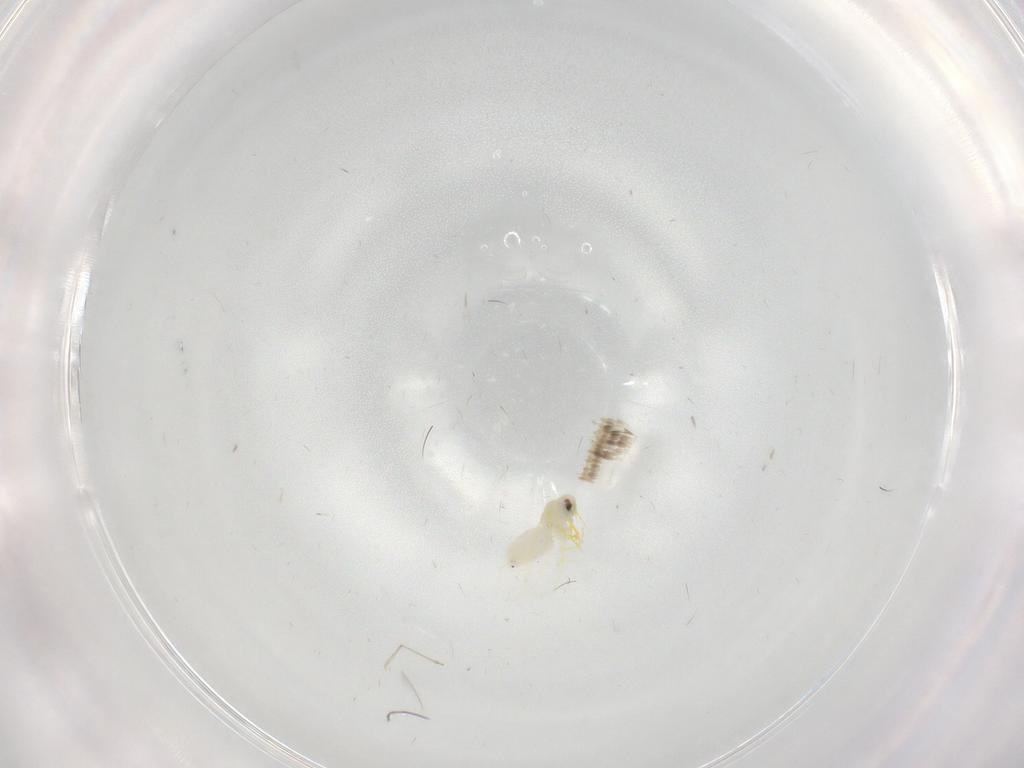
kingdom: Animalia
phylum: Arthropoda
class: Insecta
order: Hemiptera
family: Aleyrodidae
